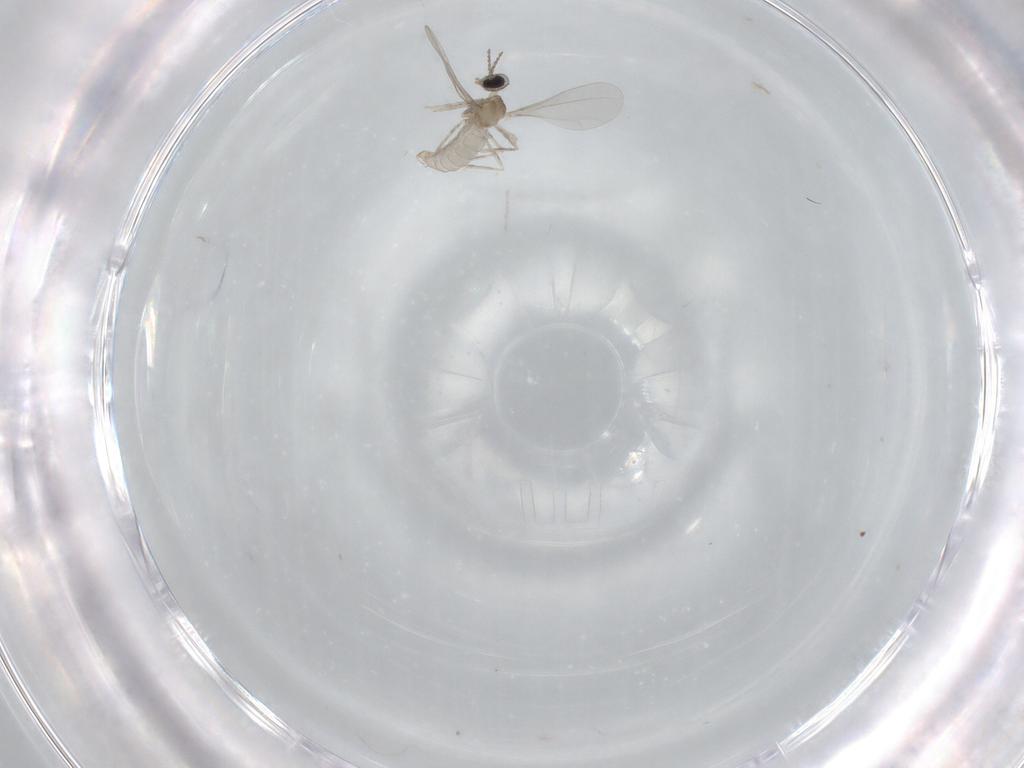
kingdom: Animalia
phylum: Arthropoda
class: Insecta
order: Diptera
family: Cecidomyiidae
